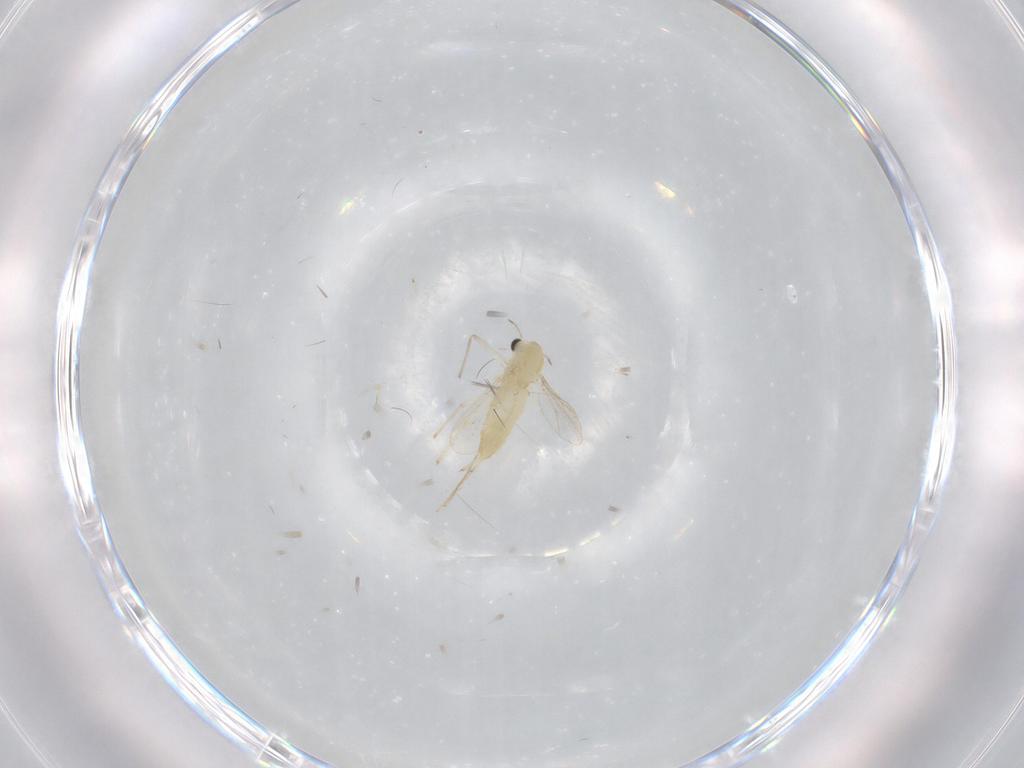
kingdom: Animalia
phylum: Arthropoda
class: Insecta
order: Diptera
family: Chironomidae
